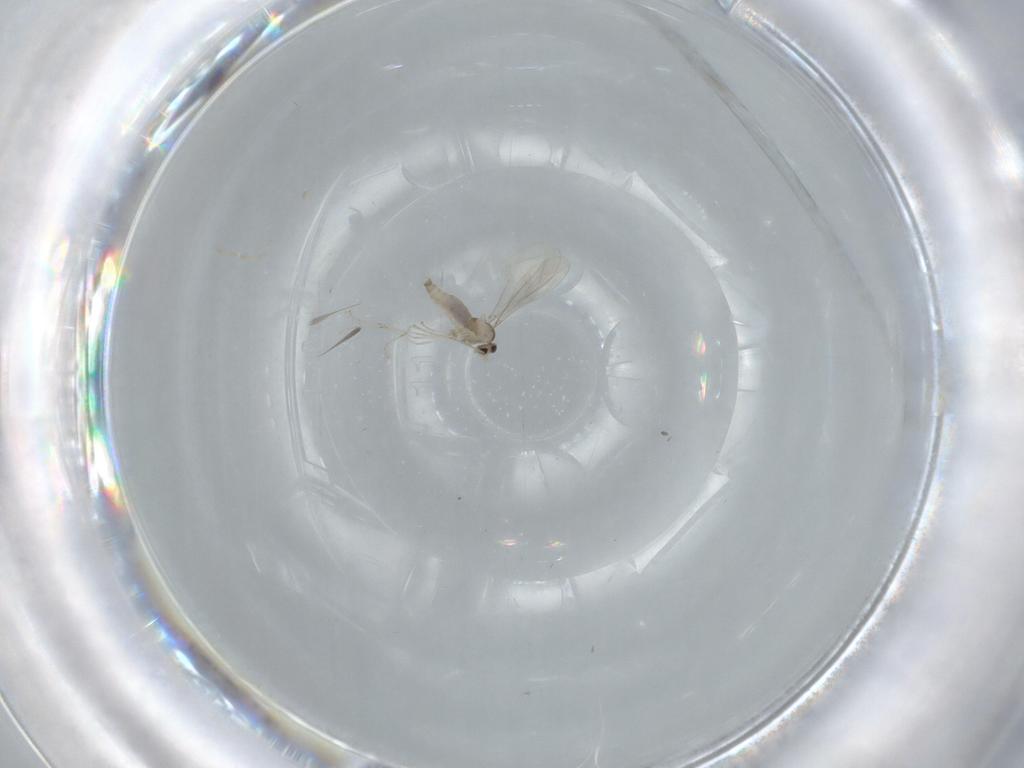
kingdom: Animalia
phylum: Arthropoda
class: Insecta
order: Diptera
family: Cecidomyiidae
